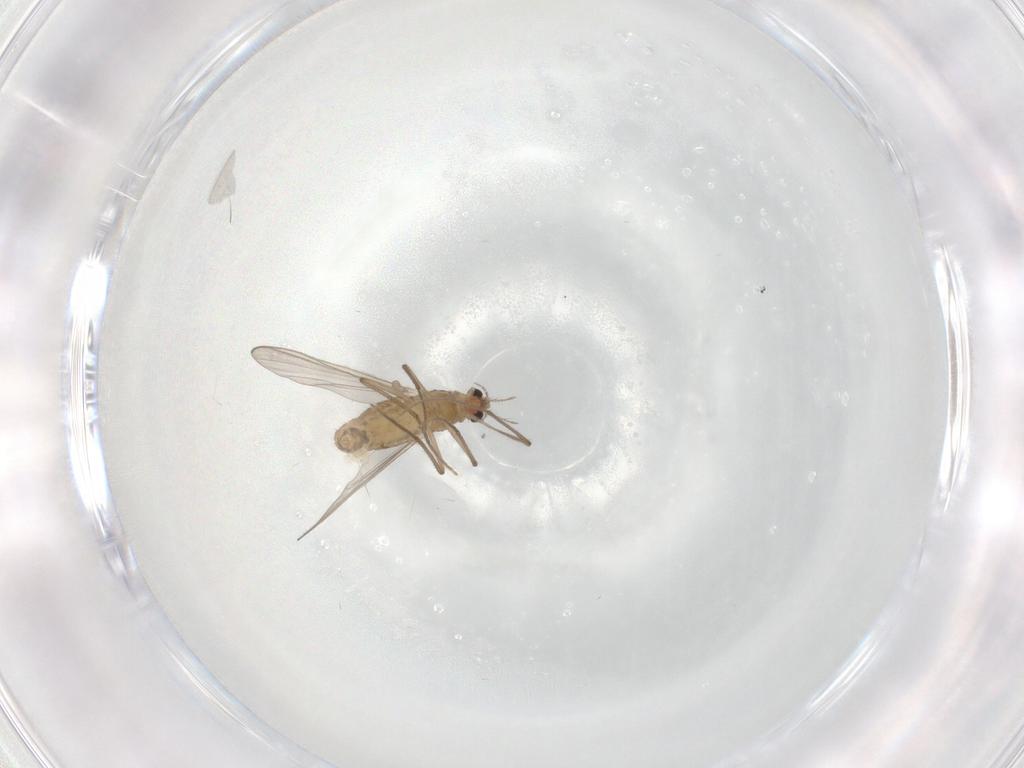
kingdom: Animalia
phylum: Arthropoda
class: Insecta
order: Diptera
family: Chironomidae
